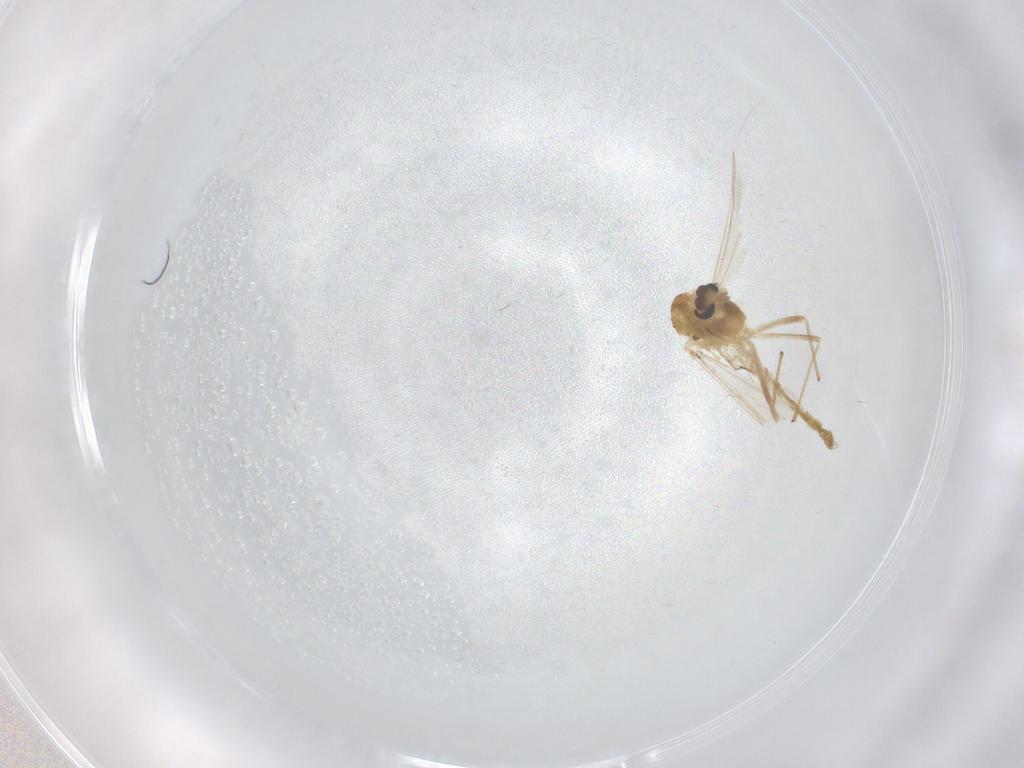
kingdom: Animalia
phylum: Arthropoda
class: Insecta
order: Diptera
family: Chironomidae
